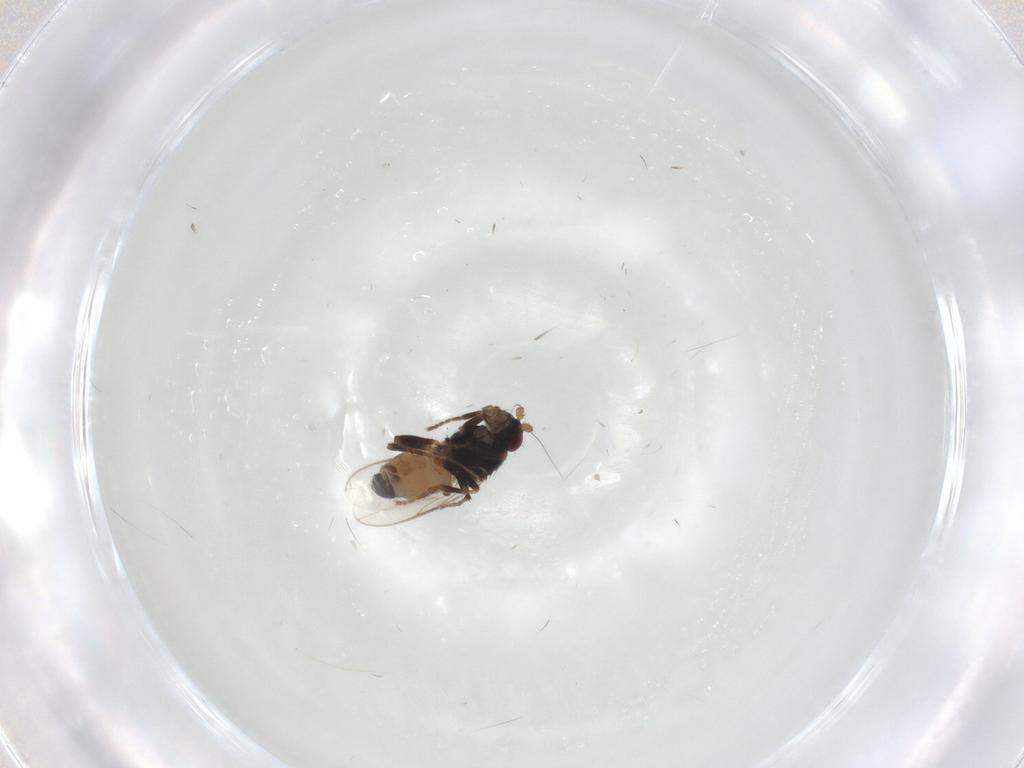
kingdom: Animalia
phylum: Arthropoda
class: Insecta
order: Diptera
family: Sphaeroceridae
